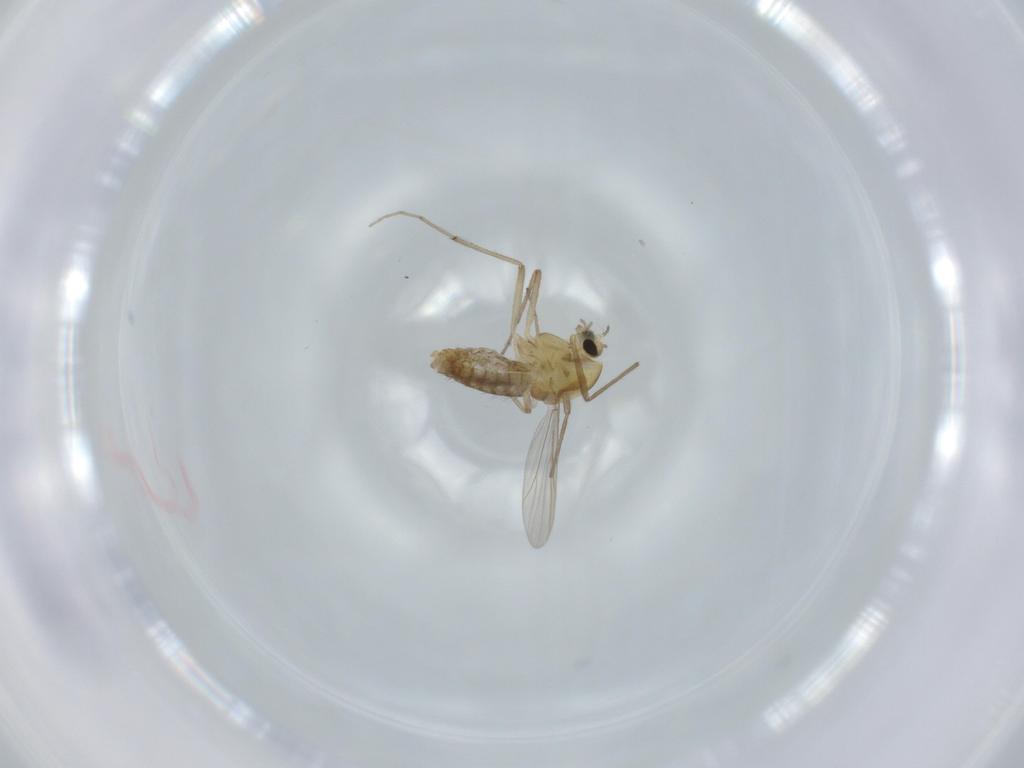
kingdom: Animalia
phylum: Arthropoda
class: Insecta
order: Diptera
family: Chironomidae
